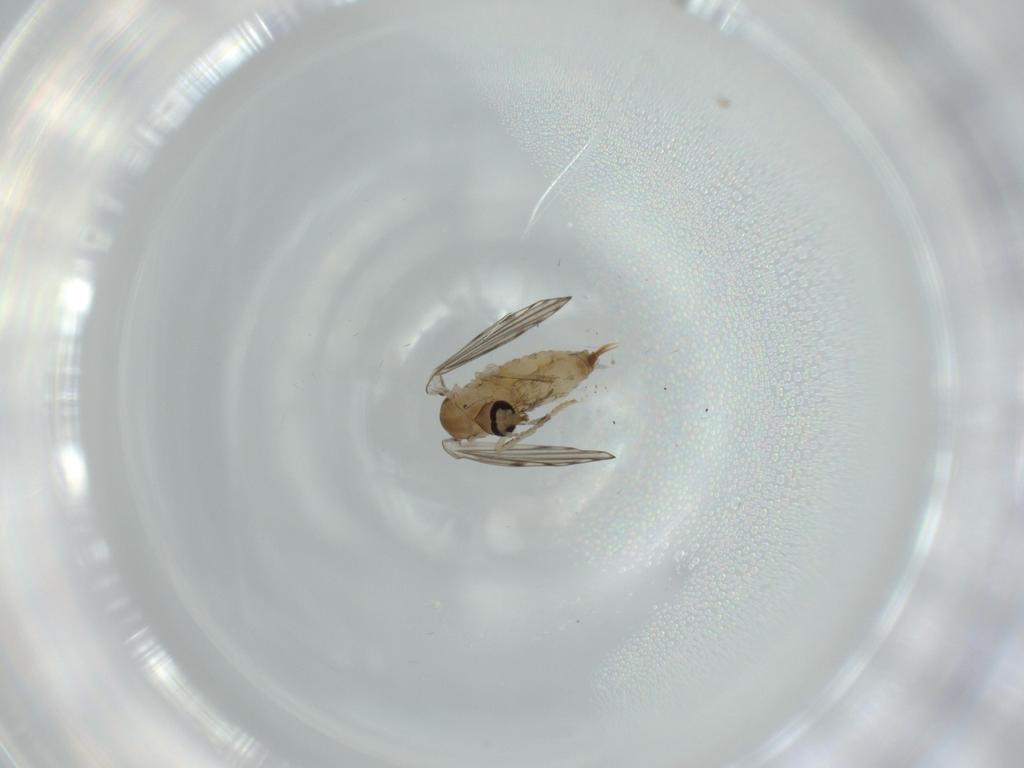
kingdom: Animalia
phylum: Arthropoda
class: Insecta
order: Diptera
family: Psychodidae
